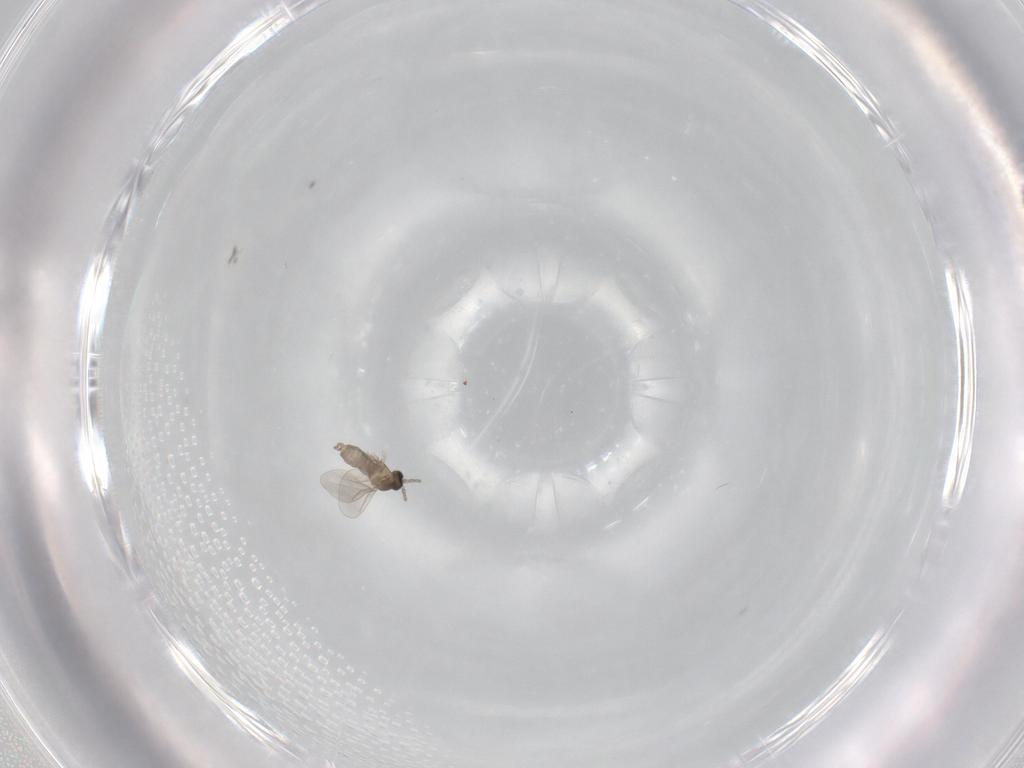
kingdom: Animalia
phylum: Arthropoda
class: Insecta
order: Diptera
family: Cecidomyiidae
